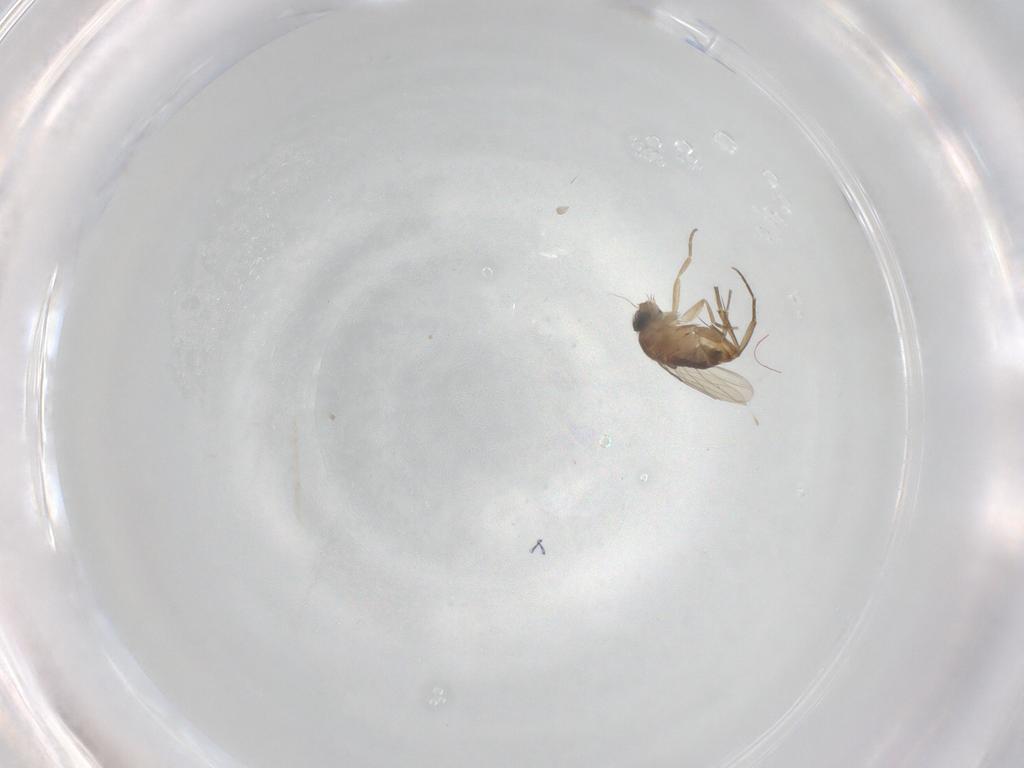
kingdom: Animalia
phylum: Arthropoda
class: Insecta
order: Diptera
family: Phoridae
